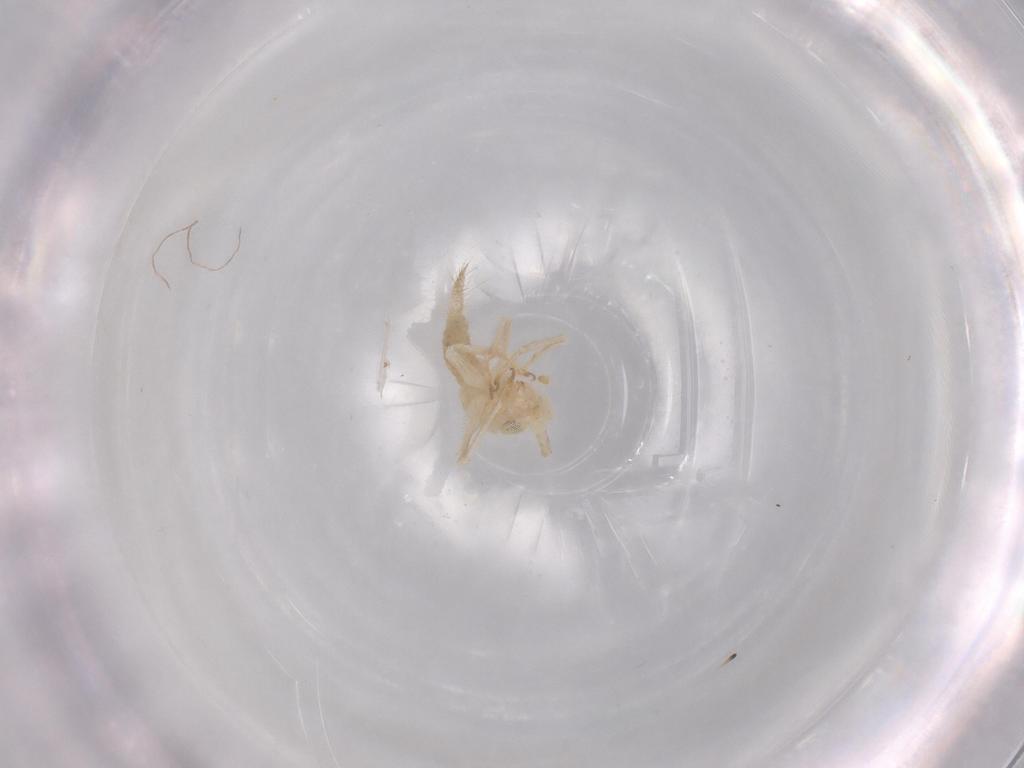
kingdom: Animalia
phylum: Arthropoda
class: Insecta
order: Orthoptera
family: Trigonidiidae
